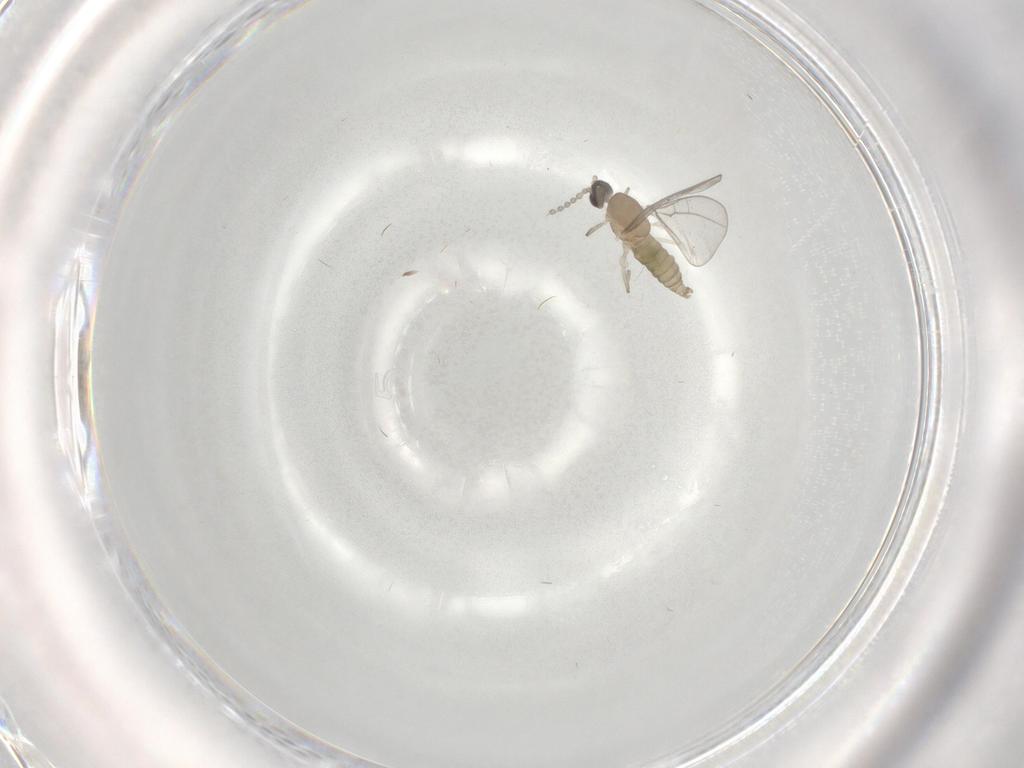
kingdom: Animalia
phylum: Arthropoda
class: Insecta
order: Diptera
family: Cecidomyiidae
